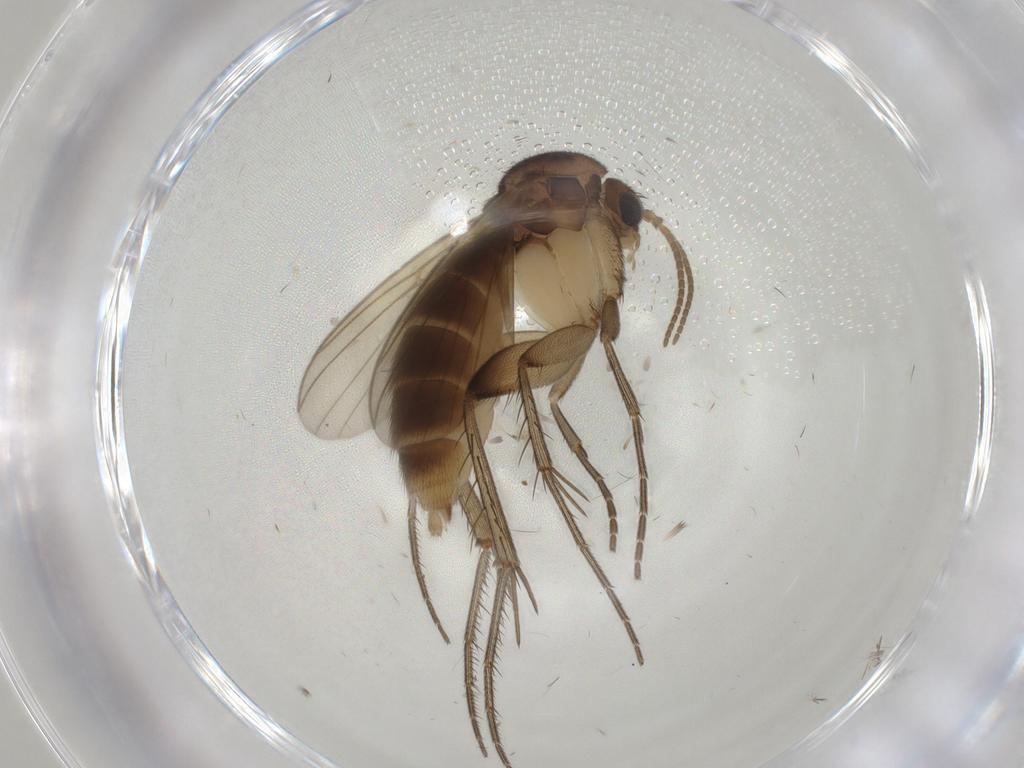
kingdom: Animalia
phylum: Arthropoda
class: Insecta
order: Diptera
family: Mycetophilidae
